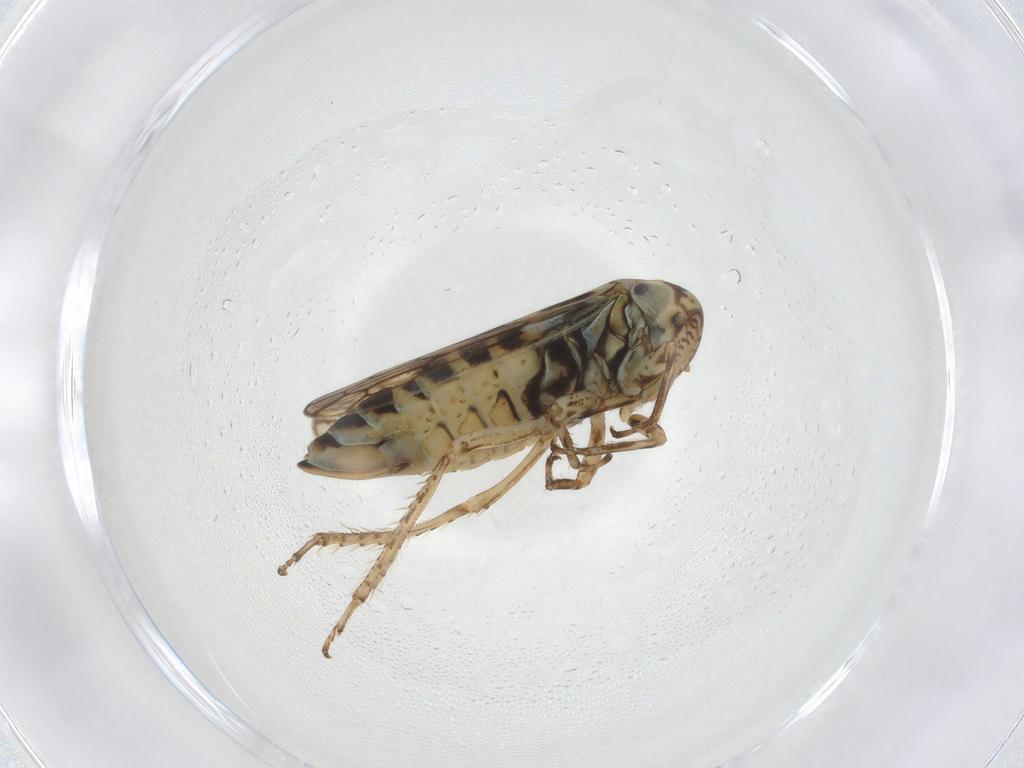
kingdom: Animalia
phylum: Arthropoda
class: Insecta
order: Hemiptera
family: Cicadellidae
